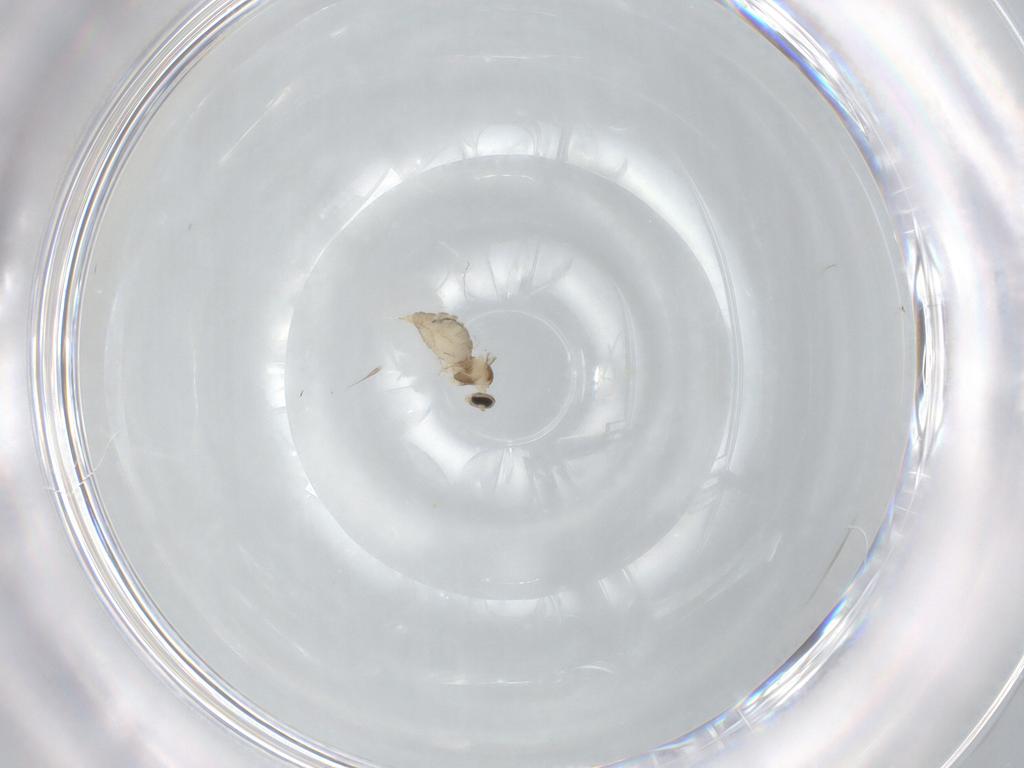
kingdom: Animalia
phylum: Arthropoda
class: Insecta
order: Diptera
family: Cecidomyiidae
